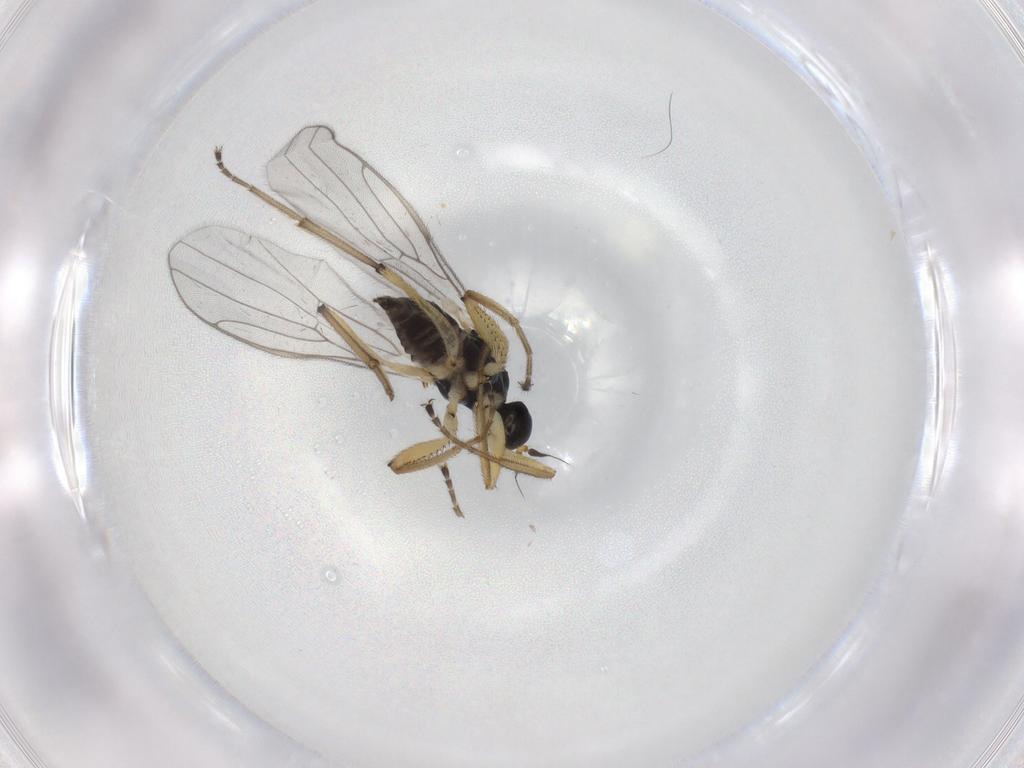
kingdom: Animalia
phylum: Arthropoda
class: Insecta
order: Diptera
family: Hybotidae
